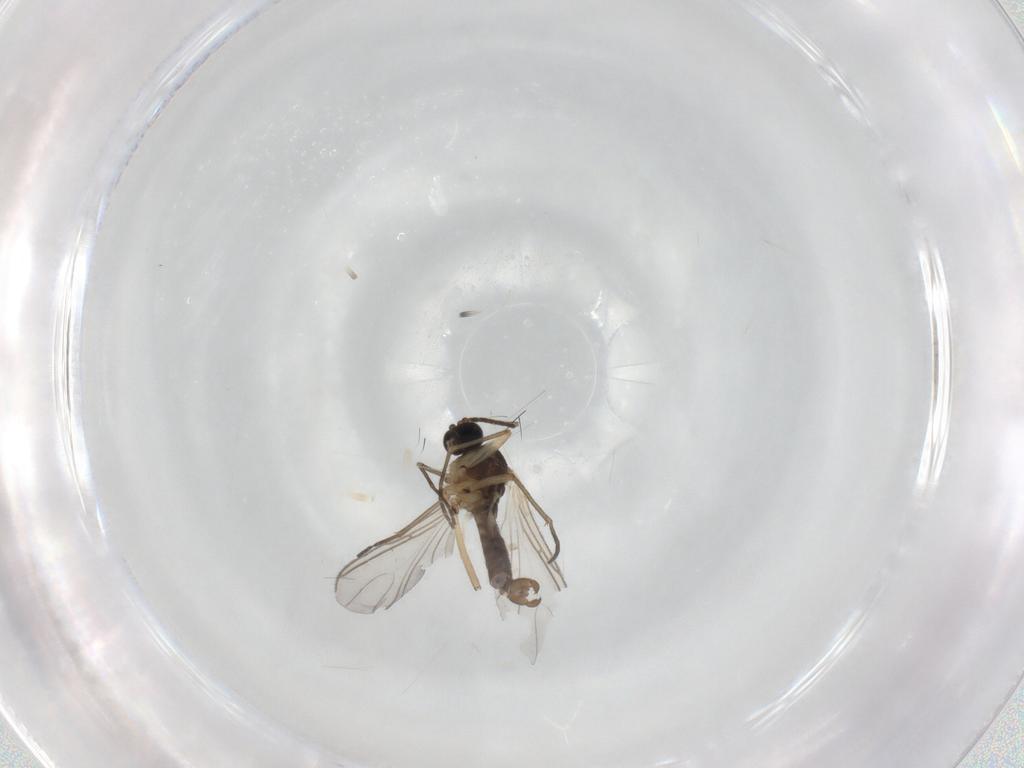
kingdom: Animalia
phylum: Arthropoda
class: Insecta
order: Diptera
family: Sciaridae
